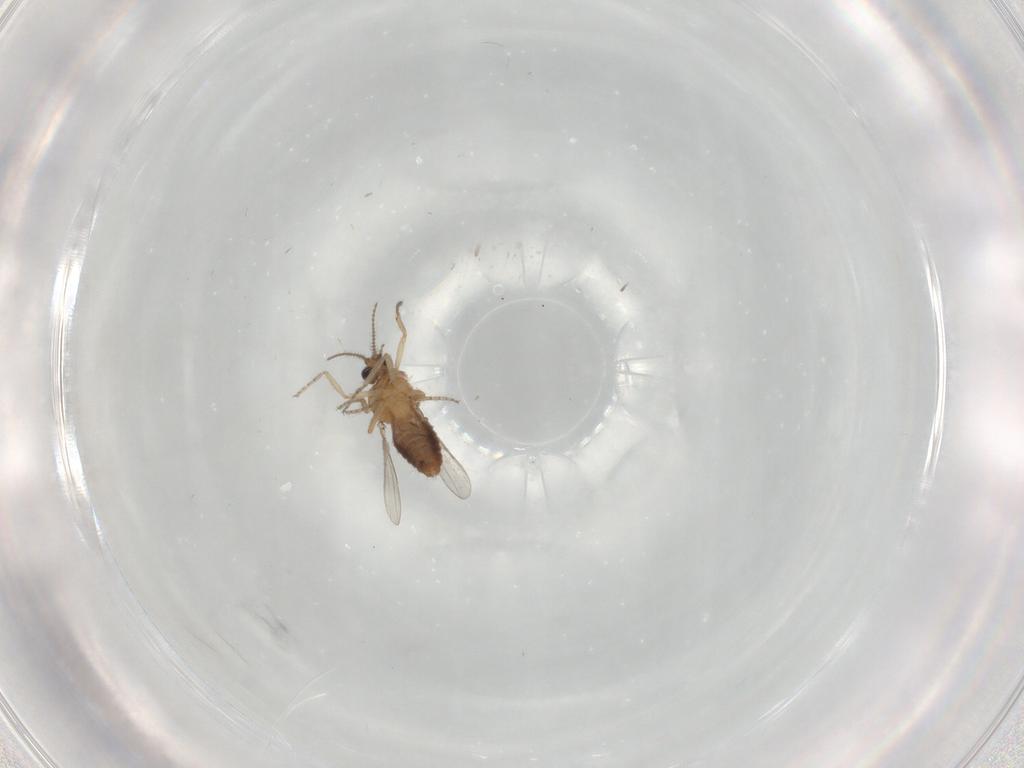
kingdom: Animalia
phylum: Arthropoda
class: Insecta
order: Diptera
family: Ceratopogonidae
